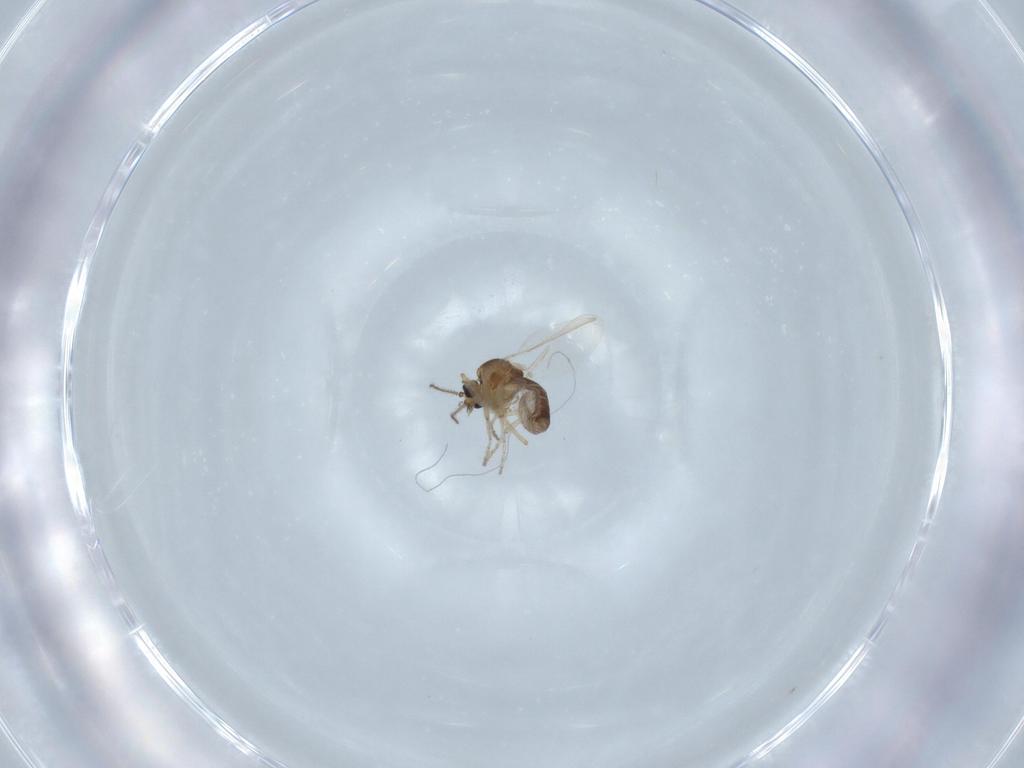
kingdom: Animalia
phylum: Arthropoda
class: Insecta
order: Diptera
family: Ceratopogonidae
